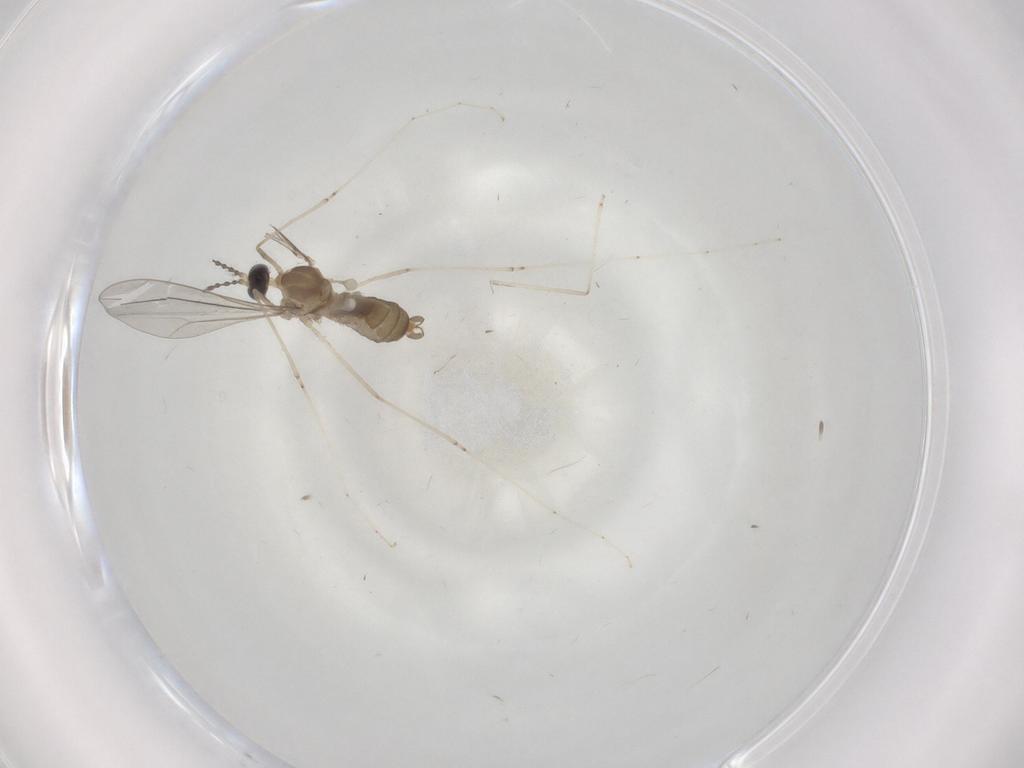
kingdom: Animalia
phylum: Arthropoda
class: Insecta
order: Diptera
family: Cecidomyiidae
